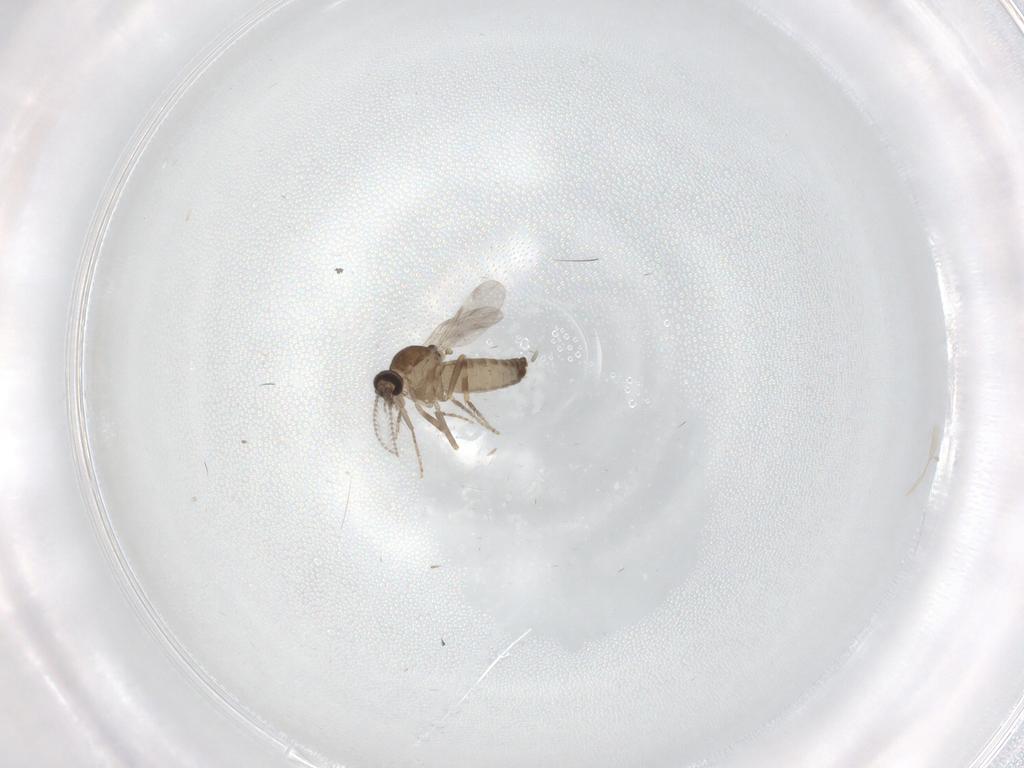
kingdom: Animalia
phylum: Arthropoda
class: Insecta
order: Diptera
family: Ceratopogonidae
